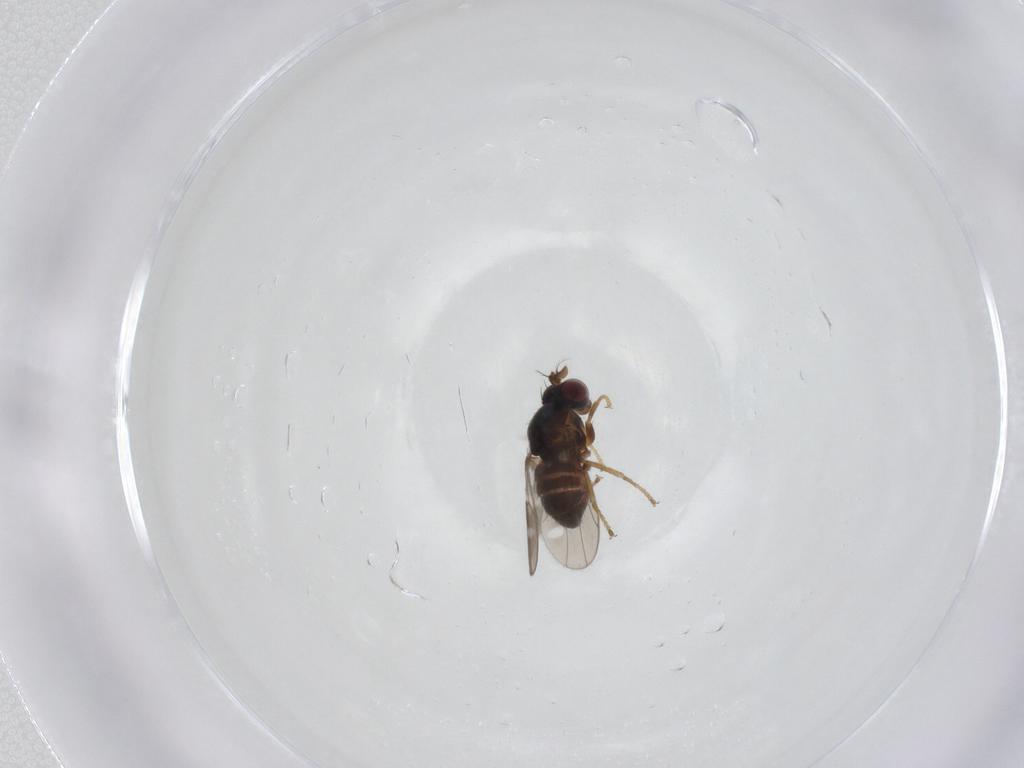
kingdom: Animalia
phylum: Arthropoda
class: Insecta
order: Diptera
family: Ephydridae
